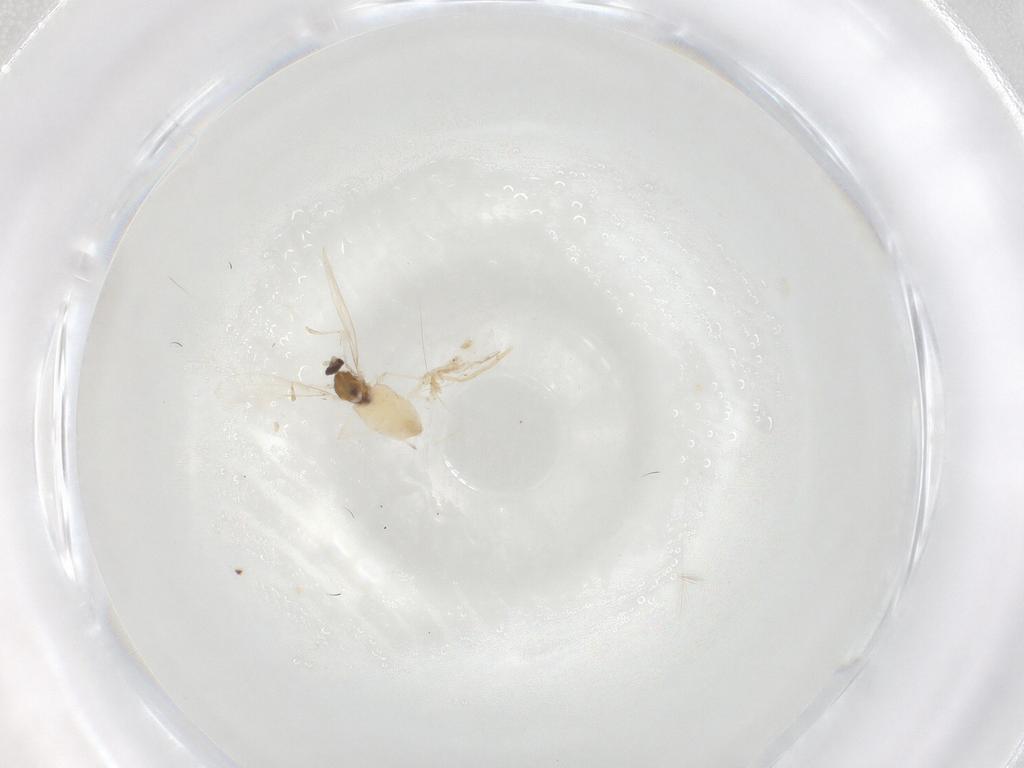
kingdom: Animalia
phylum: Arthropoda
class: Insecta
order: Diptera
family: Cecidomyiidae
